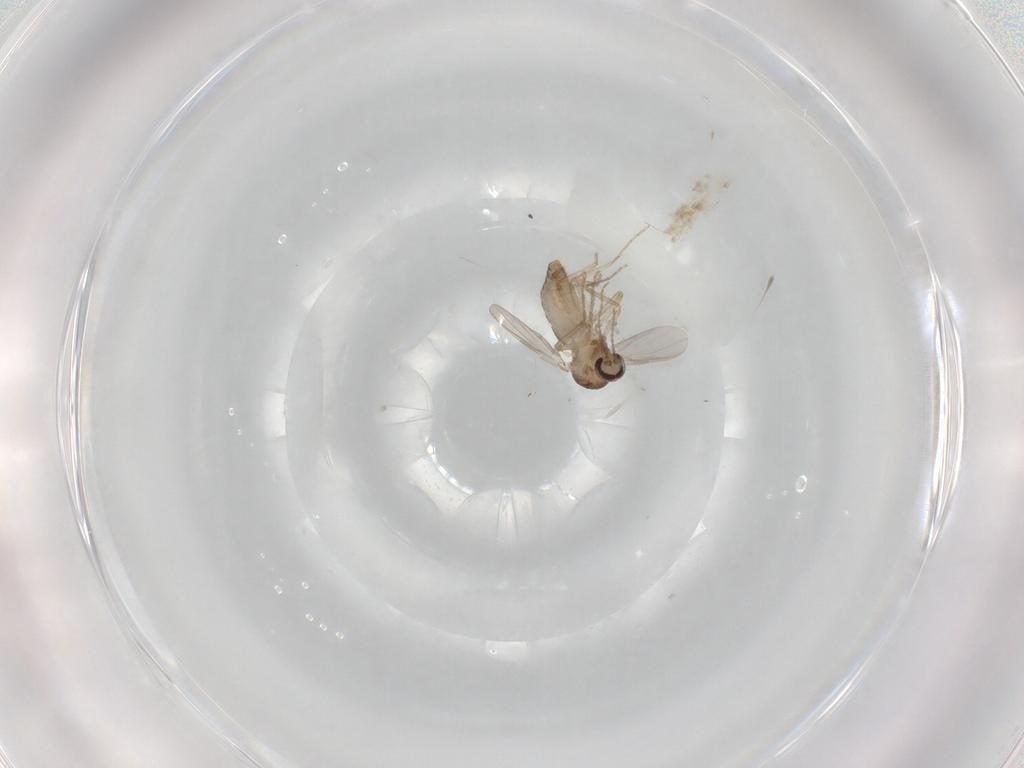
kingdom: Animalia
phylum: Arthropoda
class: Insecta
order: Diptera
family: Ceratopogonidae
